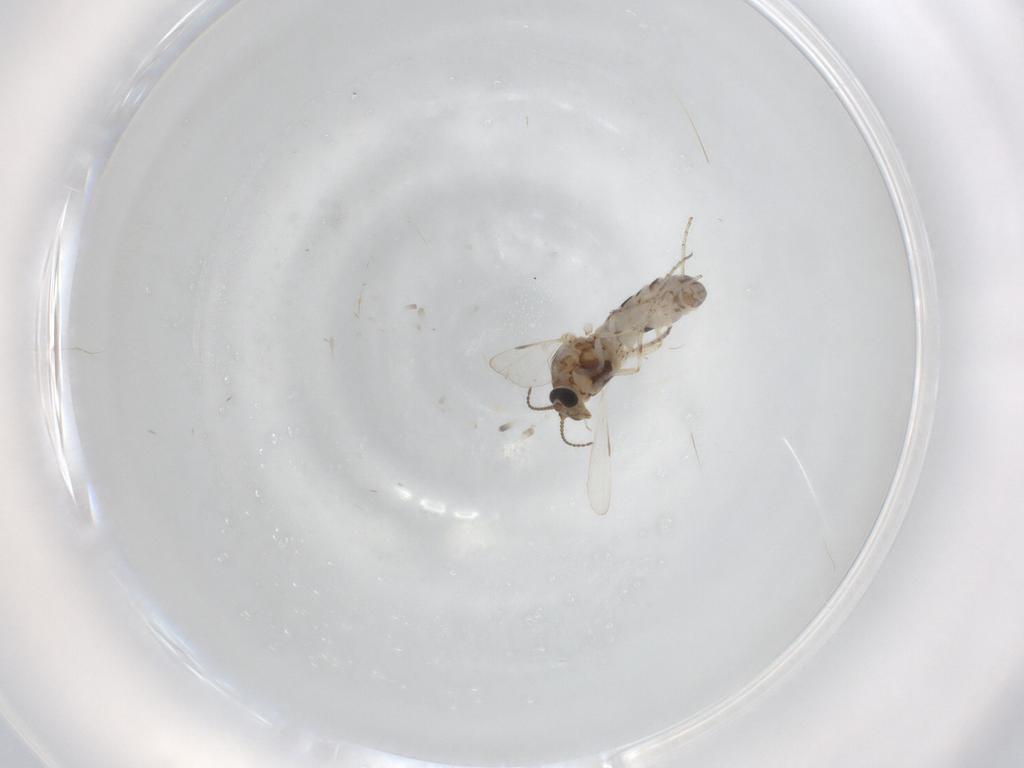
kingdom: Animalia
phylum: Arthropoda
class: Insecta
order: Diptera
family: Ceratopogonidae
